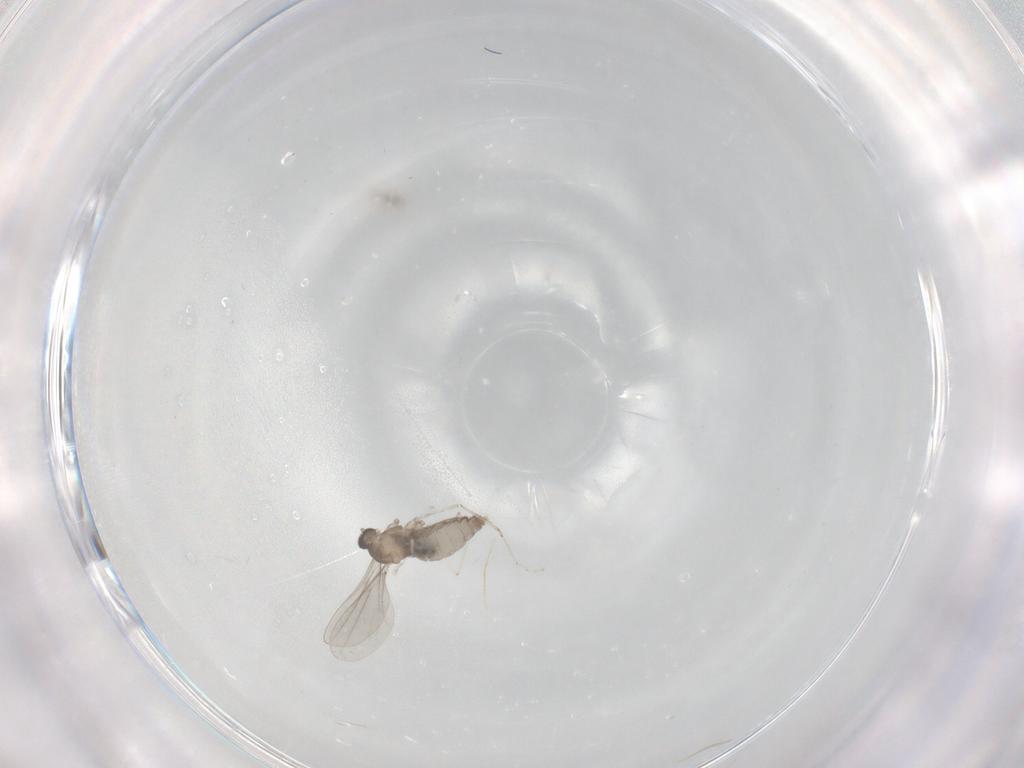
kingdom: Animalia
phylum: Arthropoda
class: Insecta
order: Diptera
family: Cecidomyiidae
